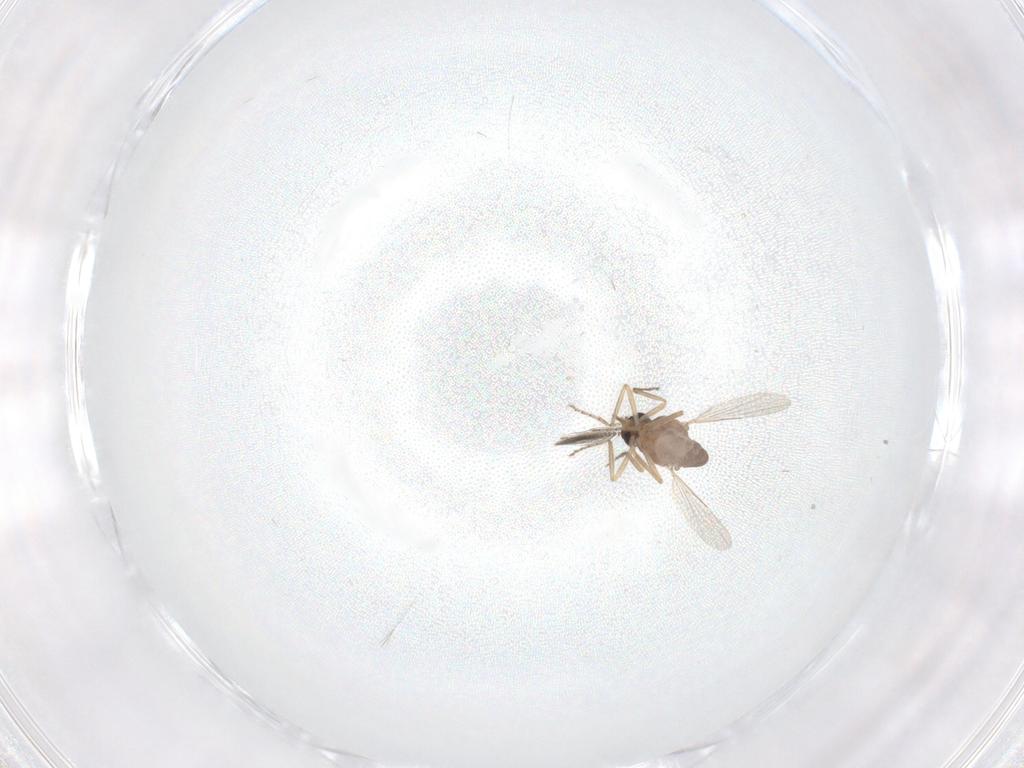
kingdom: Animalia
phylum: Arthropoda
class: Insecta
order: Diptera
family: Ceratopogonidae
